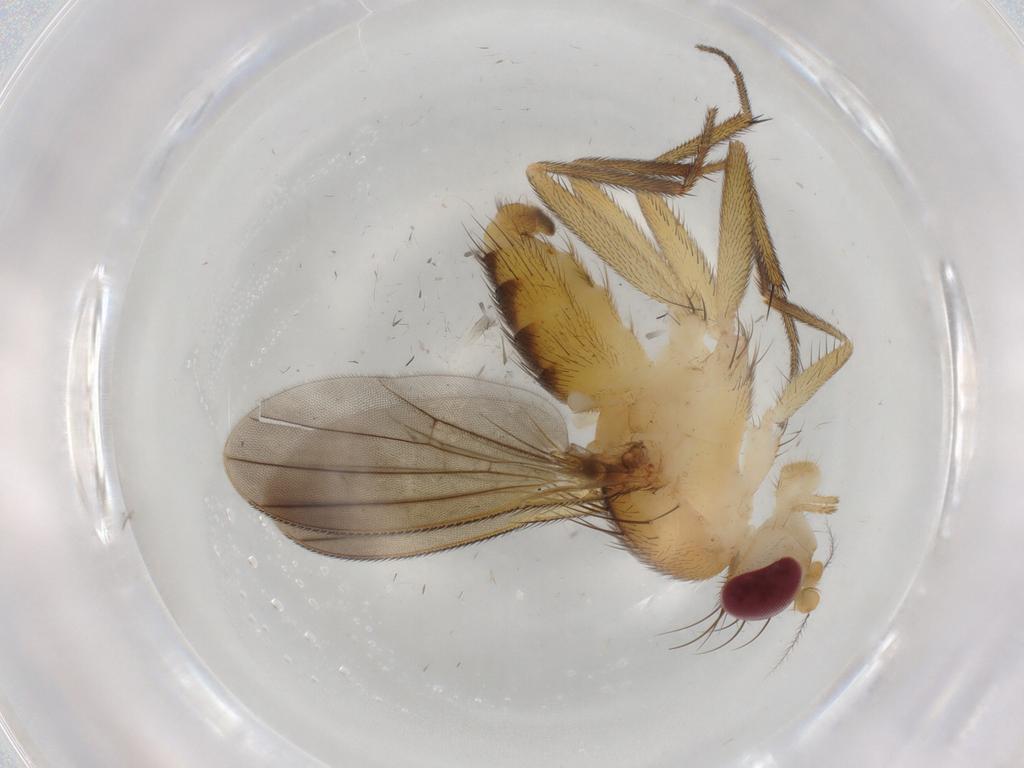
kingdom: Animalia
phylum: Arthropoda
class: Insecta
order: Diptera
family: Clusiidae
